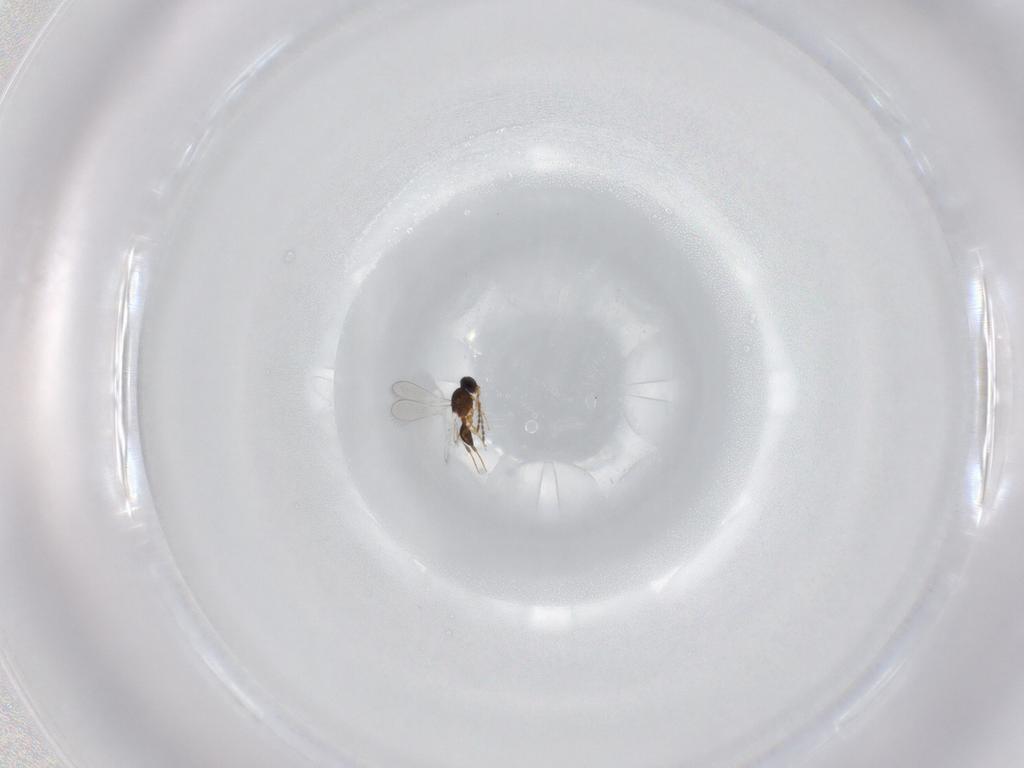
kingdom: Animalia
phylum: Arthropoda
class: Insecta
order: Hymenoptera
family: Platygastridae
